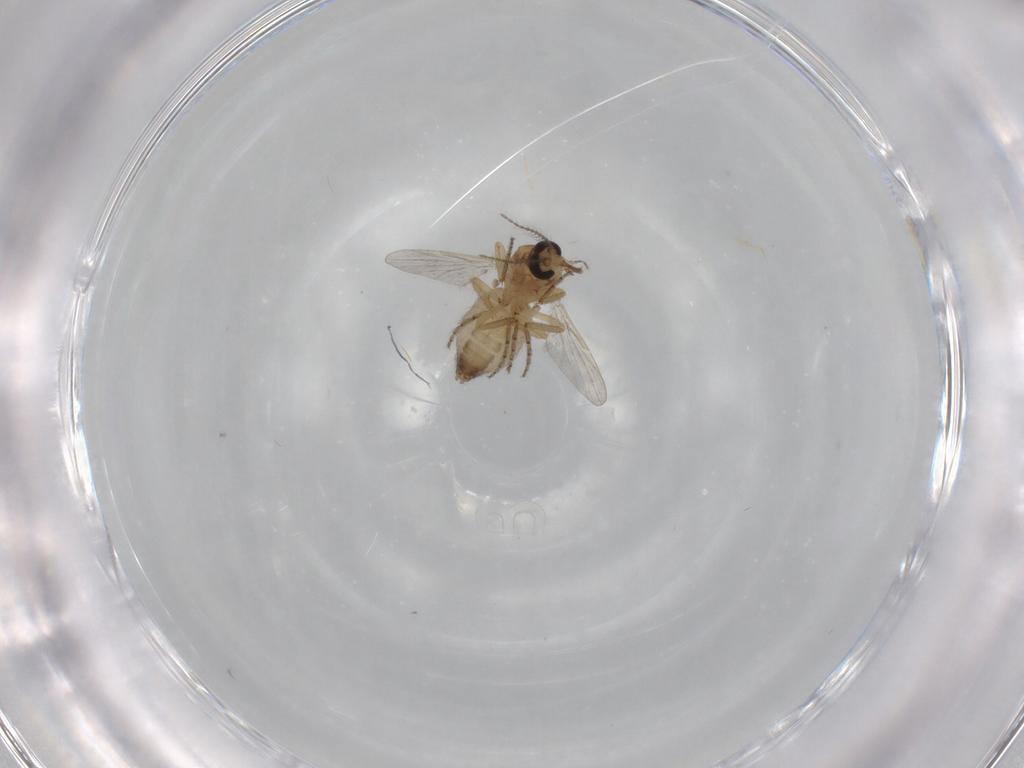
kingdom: Animalia
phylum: Arthropoda
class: Insecta
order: Diptera
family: Ceratopogonidae
